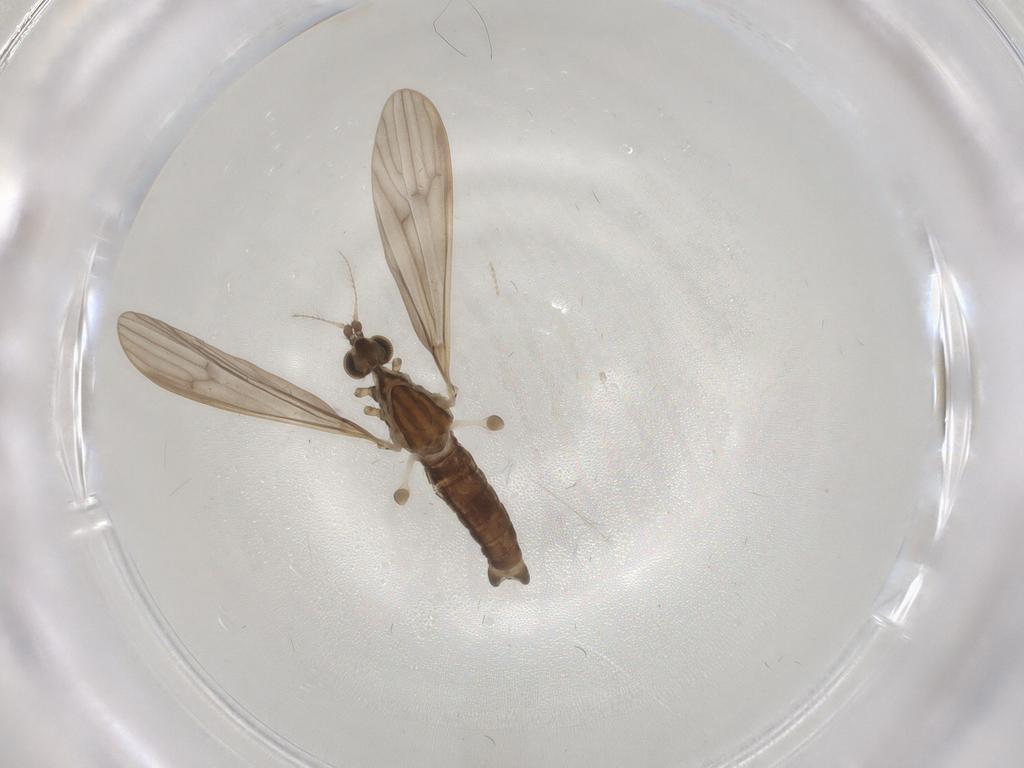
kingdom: Animalia
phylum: Arthropoda
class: Insecta
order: Diptera
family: Limoniidae
